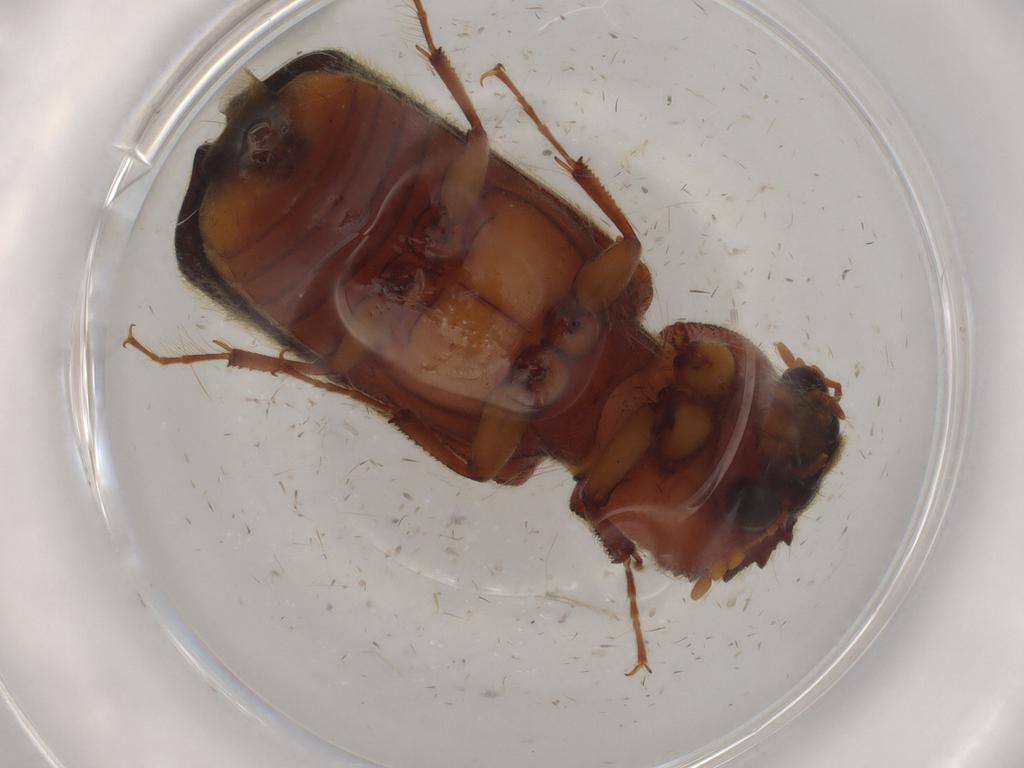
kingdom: Animalia
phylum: Arthropoda
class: Insecta
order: Coleoptera
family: Bostrichidae
